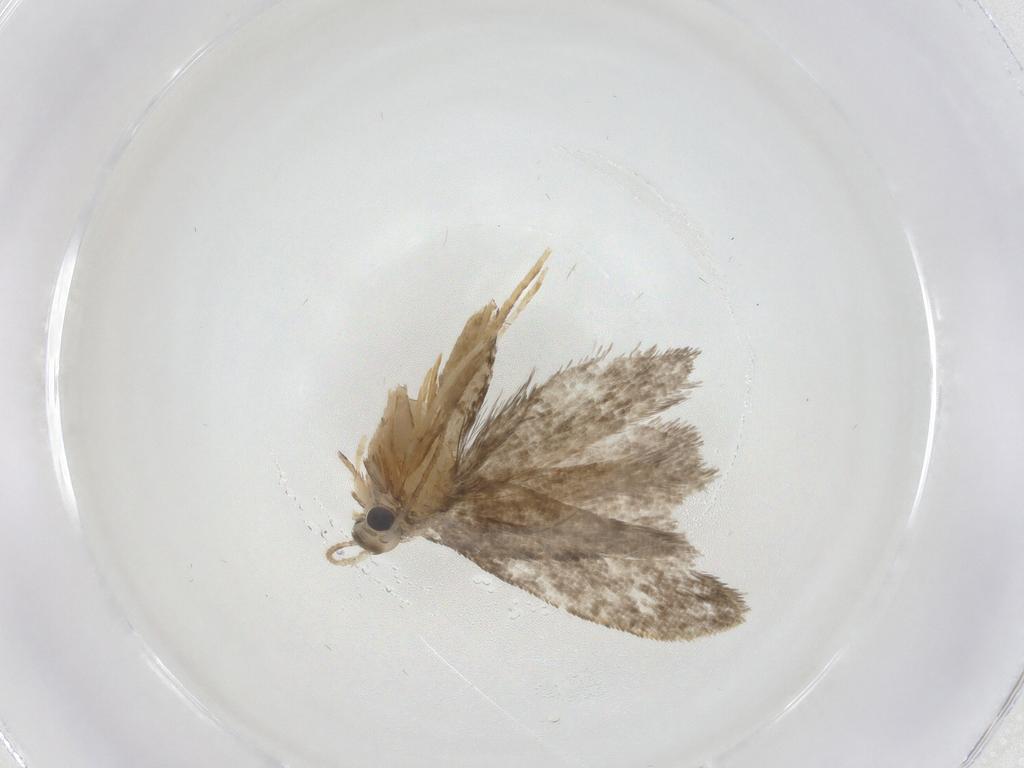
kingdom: Animalia
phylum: Arthropoda
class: Insecta
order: Lepidoptera
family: Psychidae
